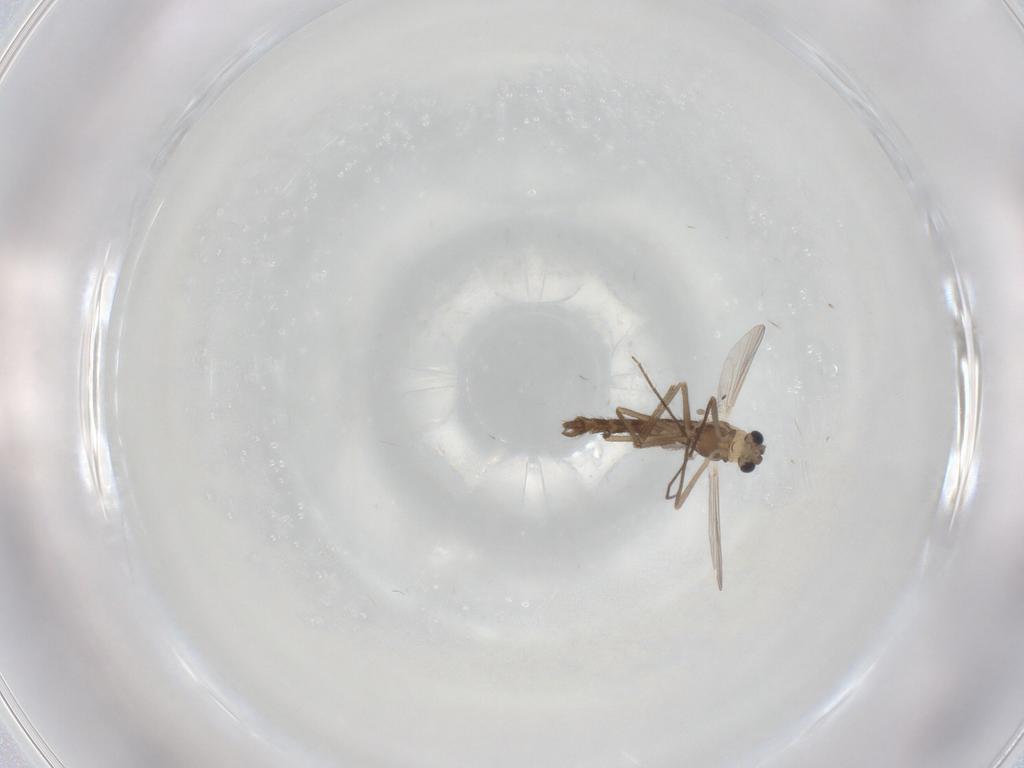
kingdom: Animalia
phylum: Arthropoda
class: Insecta
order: Diptera
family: Chironomidae
